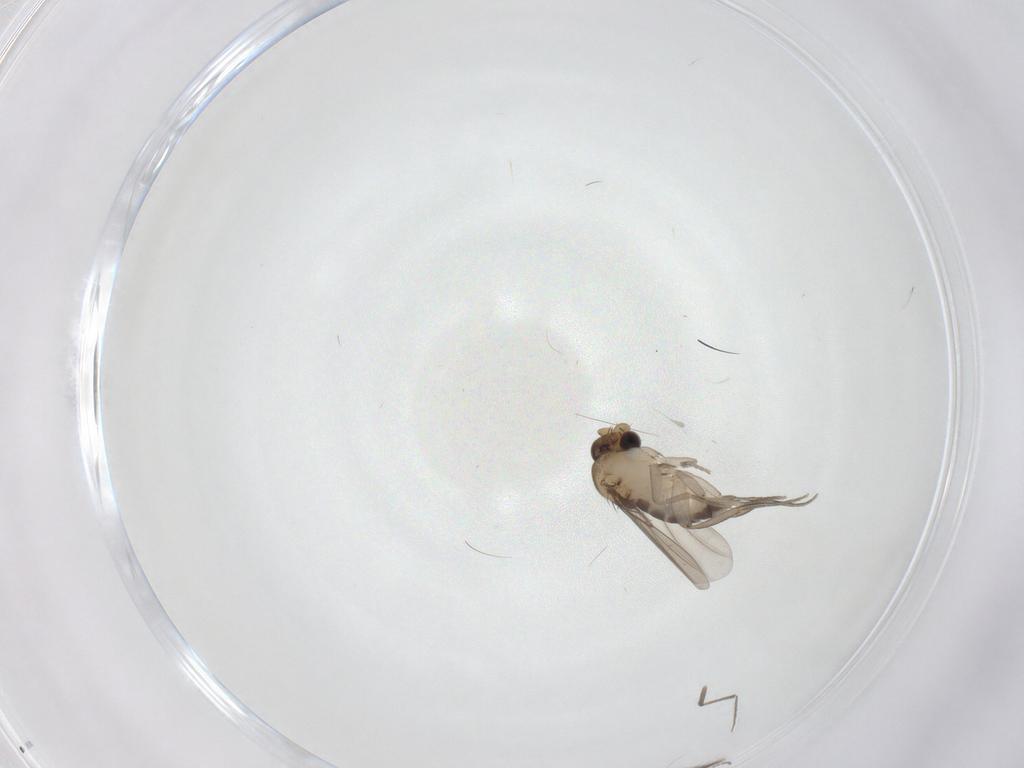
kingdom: Animalia
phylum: Arthropoda
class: Insecta
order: Diptera
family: Phoridae
